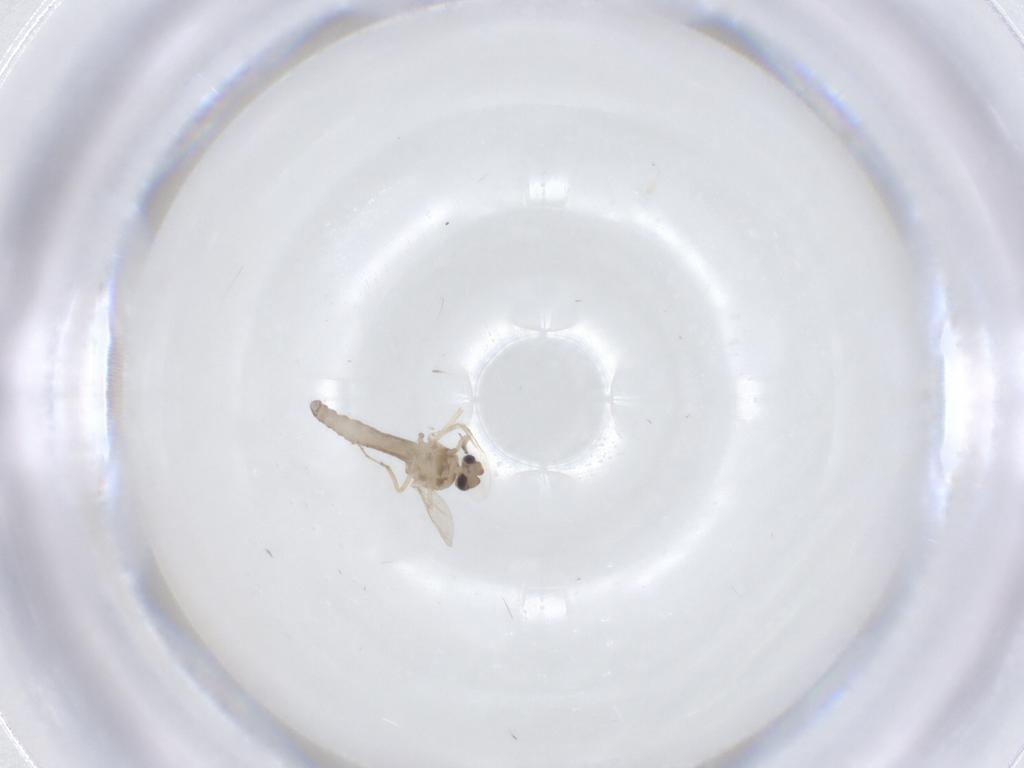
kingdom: Animalia
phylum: Arthropoda
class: Insecta
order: Diptera
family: Ceratopogonidae
